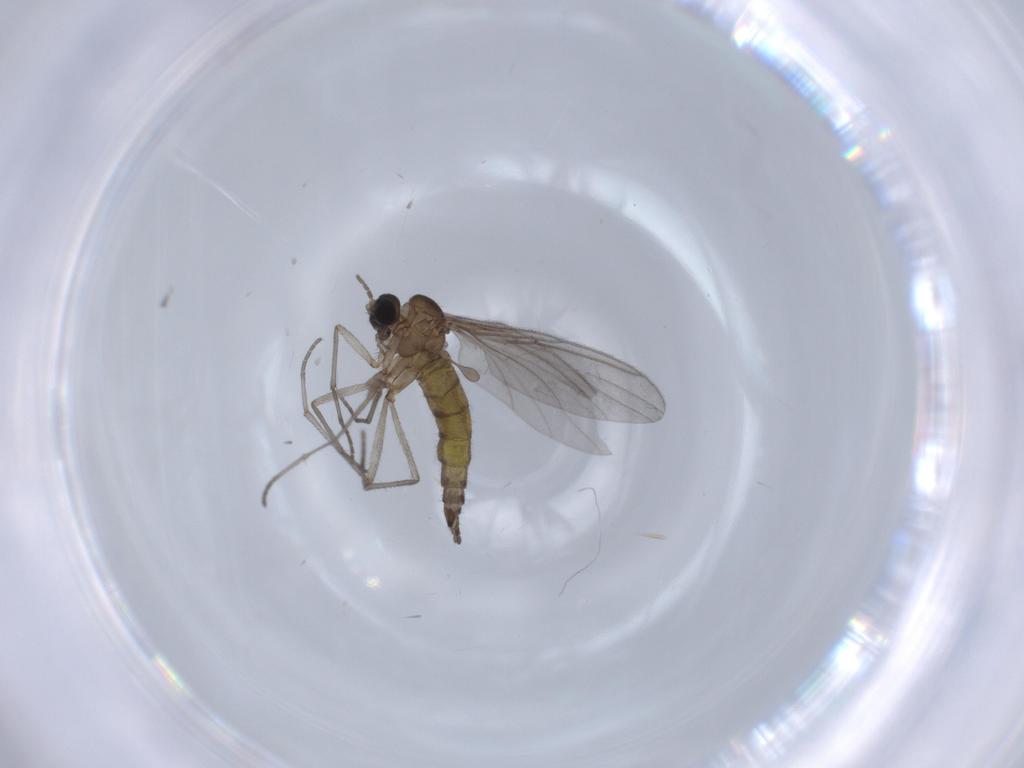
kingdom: Animalia
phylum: Arthropoda
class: Insecta
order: Diptera
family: Sciaridae
